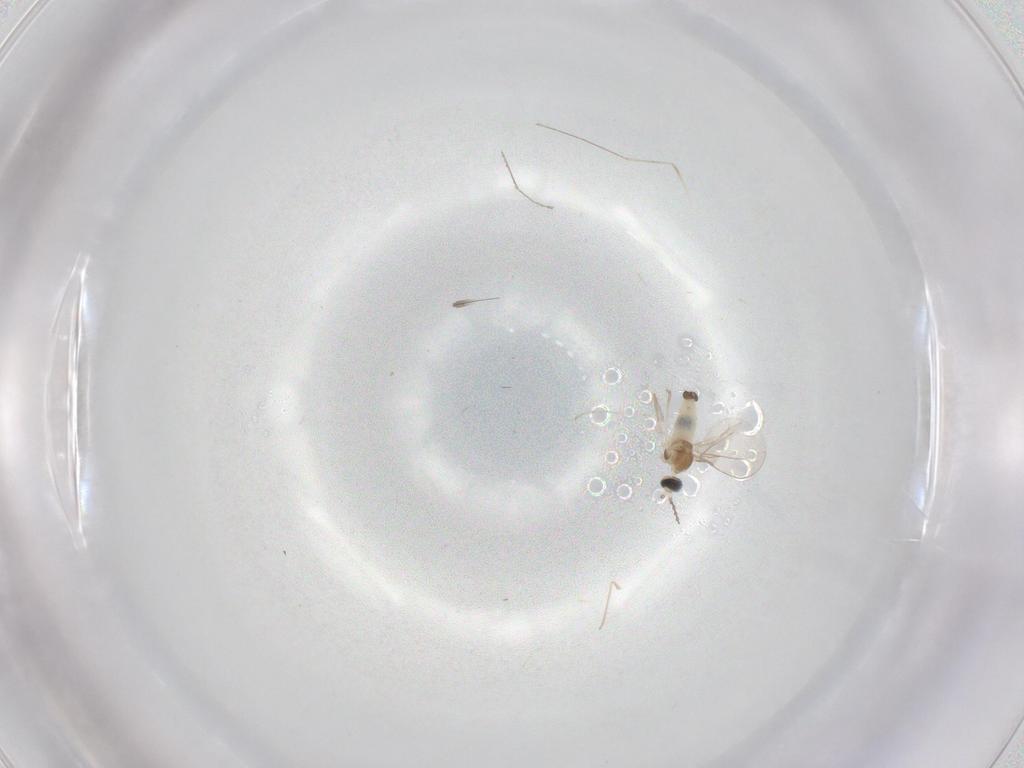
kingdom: Animalia
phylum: Arthropoda
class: Insecta
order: Diptera
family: Cecidomyiidae
